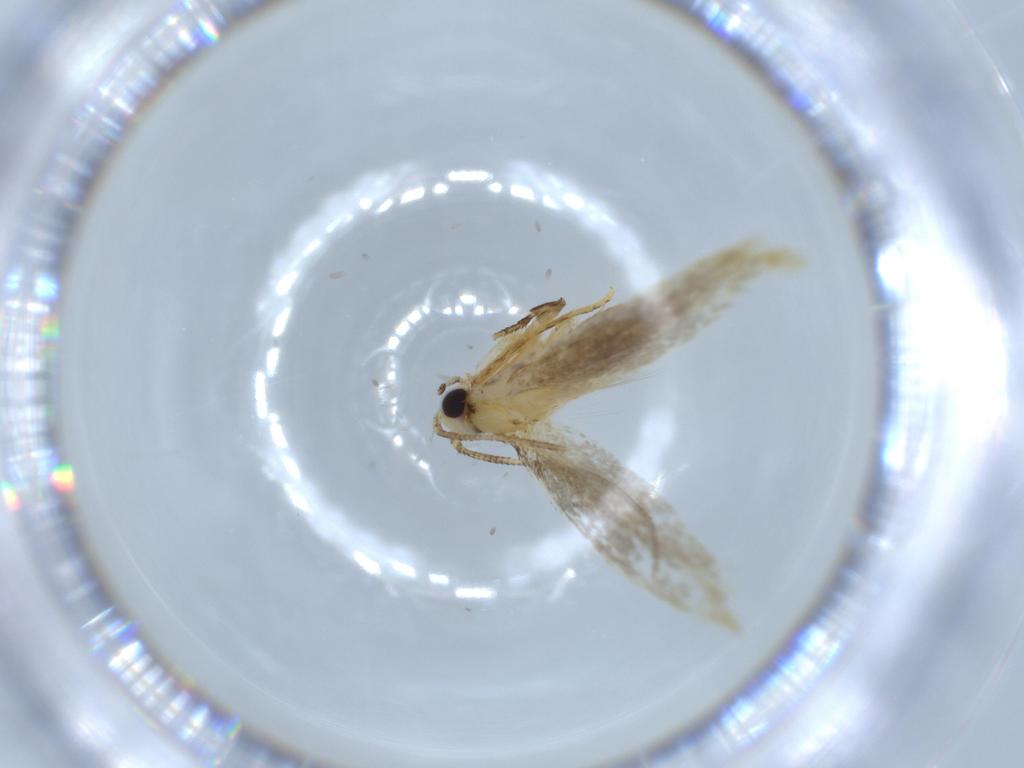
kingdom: Animalia
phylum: Arthropoda
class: Insecta
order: Lepidoptera
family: Tineidae
